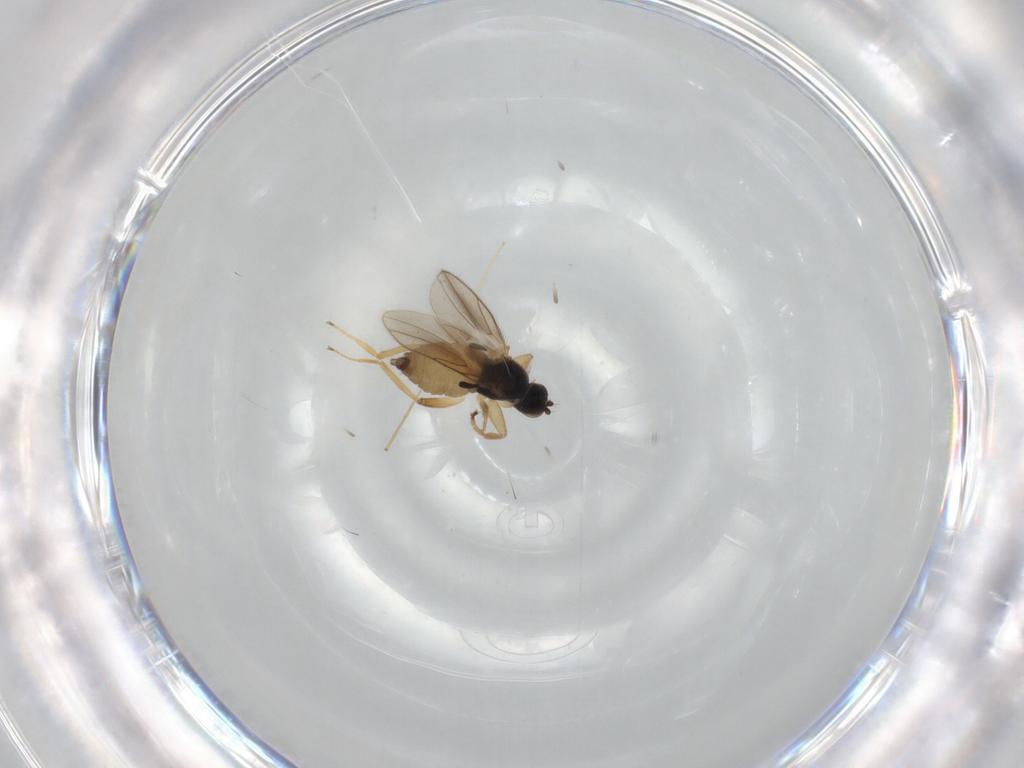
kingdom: Animalia
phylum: Arthropoda
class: Insecta
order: Diptera
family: Hybotidae
